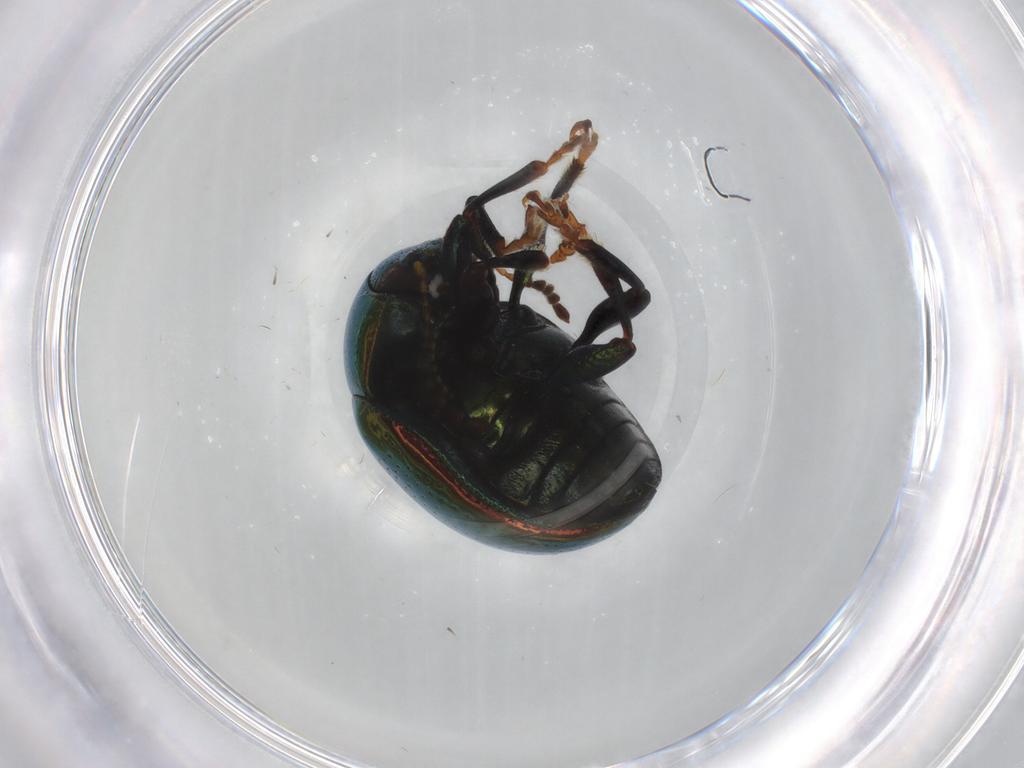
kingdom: Animalia
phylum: Arthropoda
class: Insecta
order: Coleoptera
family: Chrysomelidae
